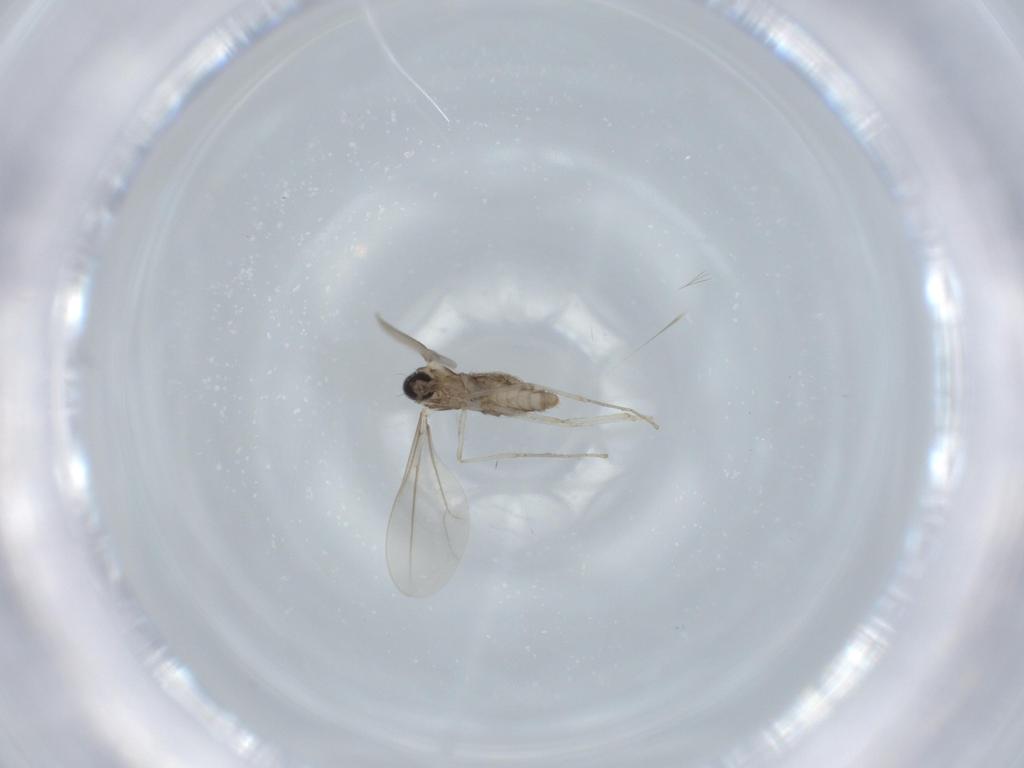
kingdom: Animalia
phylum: Arthropoda
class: Insecta
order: Diptera
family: Cecidomyiidae
